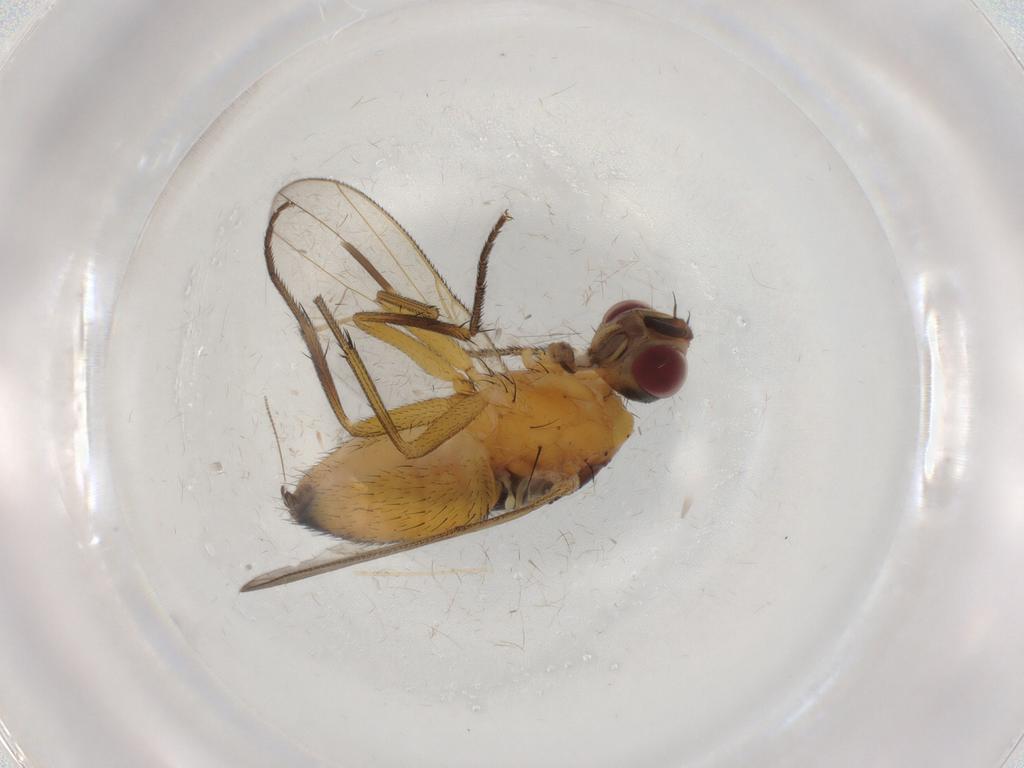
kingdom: Animalia
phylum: Arthropoda
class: Insecta
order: Diptera
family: Muscidae
